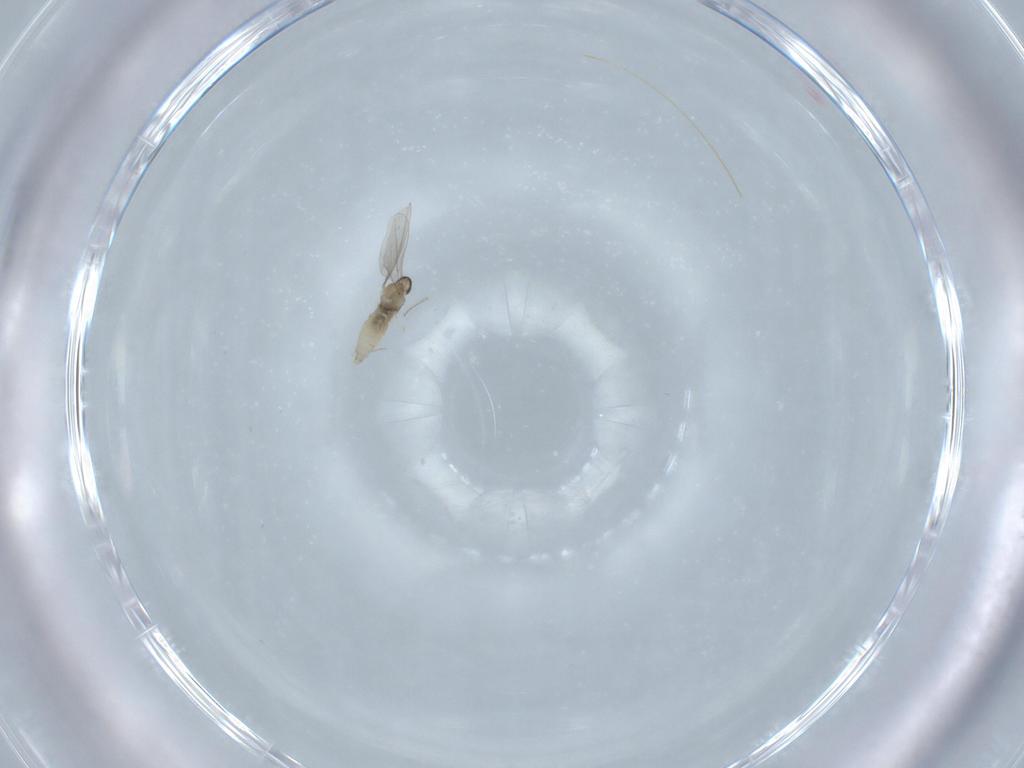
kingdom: Animalia
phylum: Arthropoda
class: Insecta
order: Diptera
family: Cecidomyiidae
